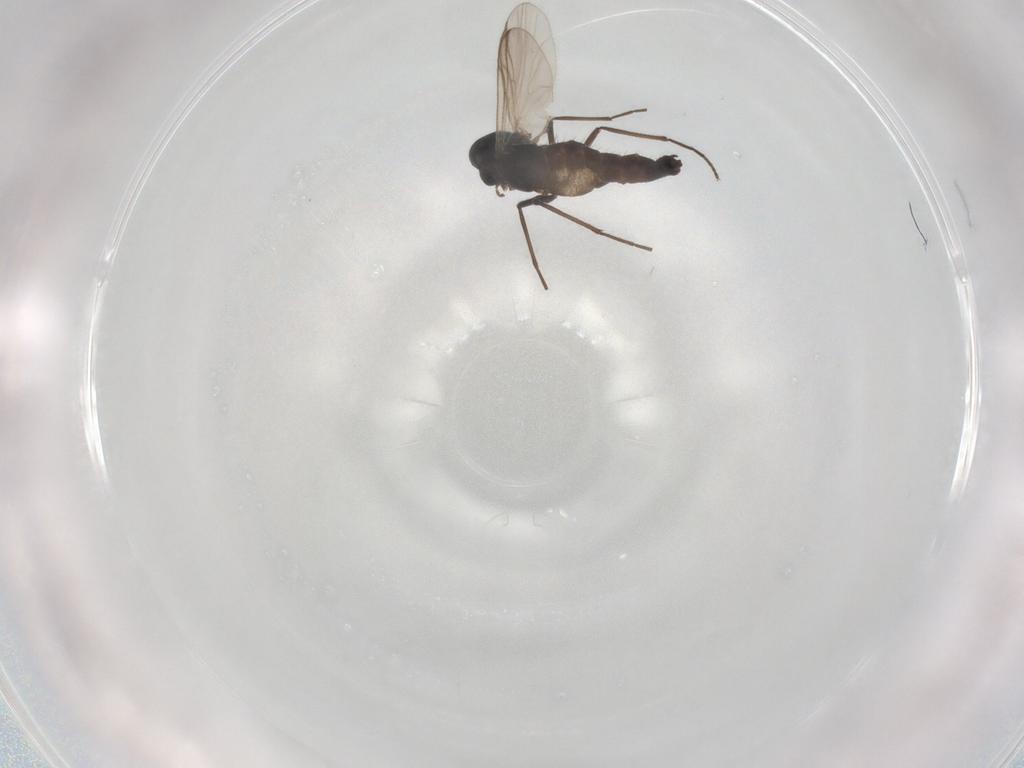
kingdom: Animalia
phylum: Arthropoda
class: Insecta
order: Diptera
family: Chironomidae
